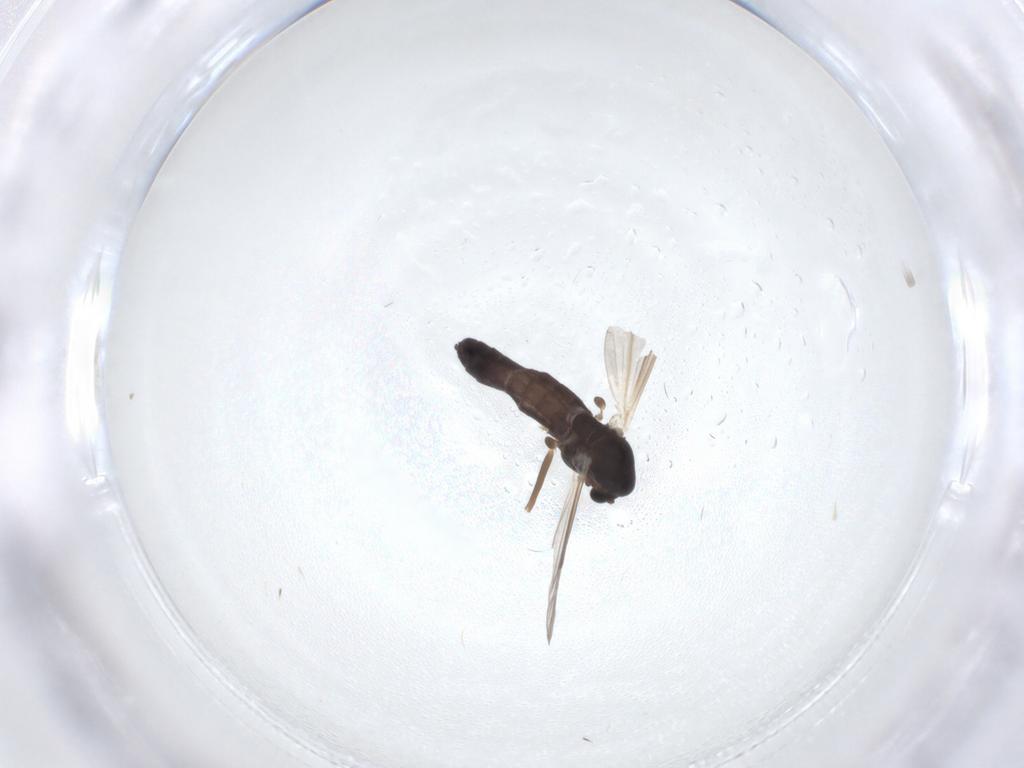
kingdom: Animalia
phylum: Arthropoda
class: Insecta
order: Diptera
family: Chironomidae
